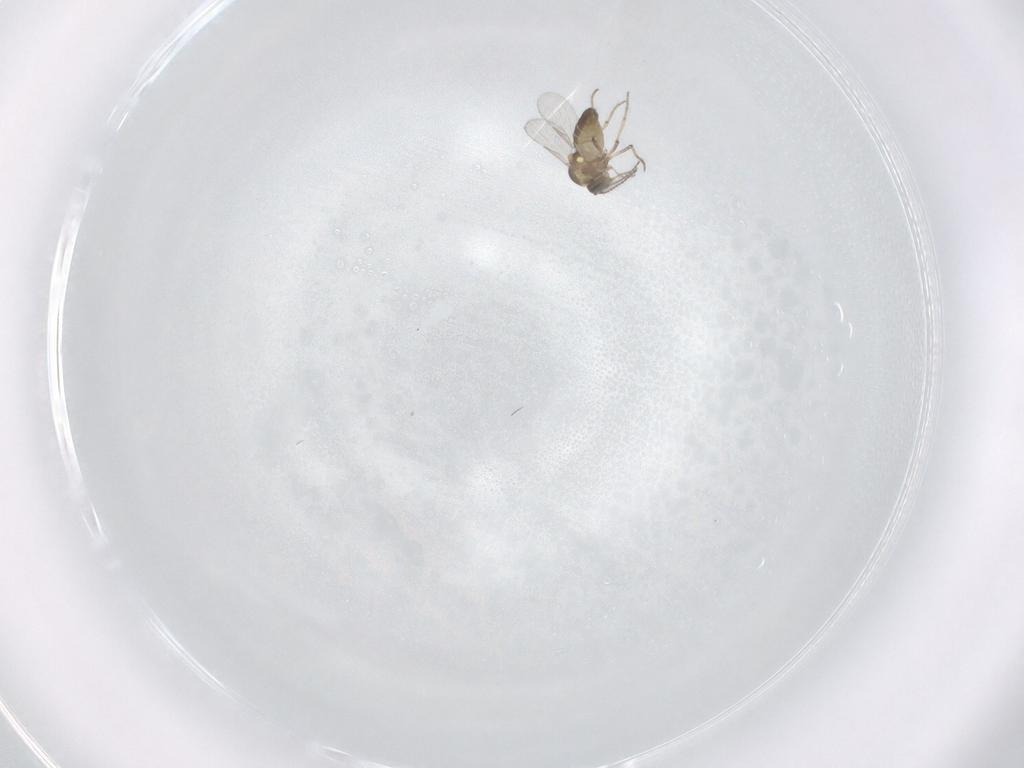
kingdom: Animalia
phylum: Arthropoda
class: Insecta
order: Diptera
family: Ceratopogonidae
